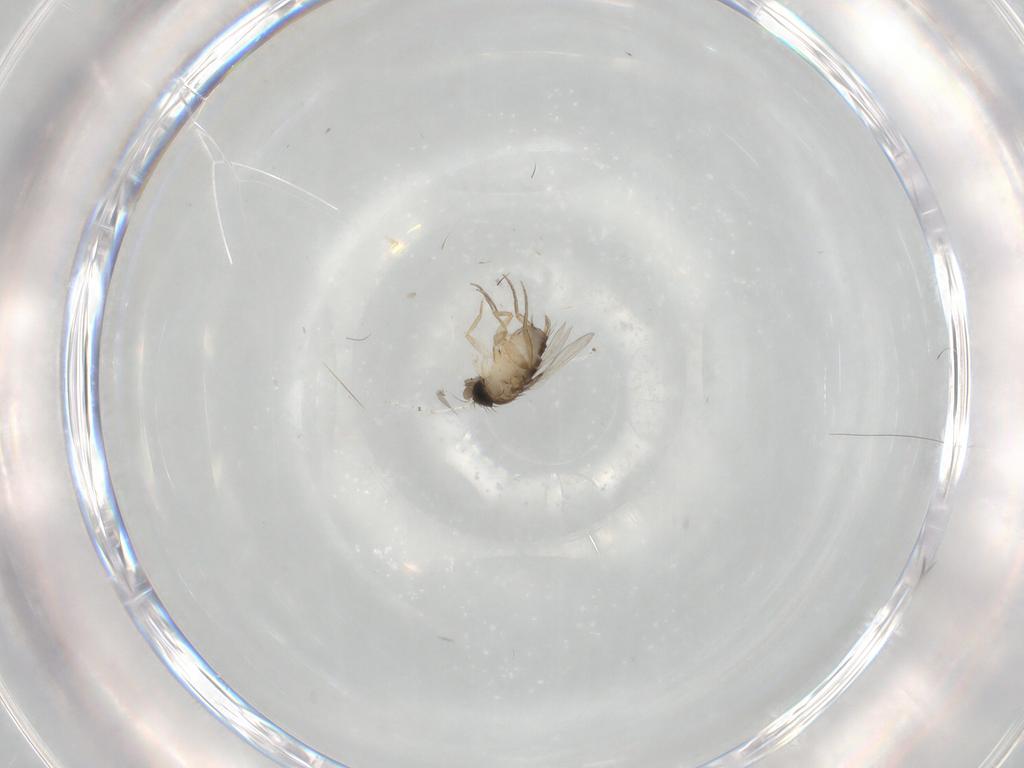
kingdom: Animalia
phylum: Arthropoda
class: Insecta
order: Diptera
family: Phoridae
